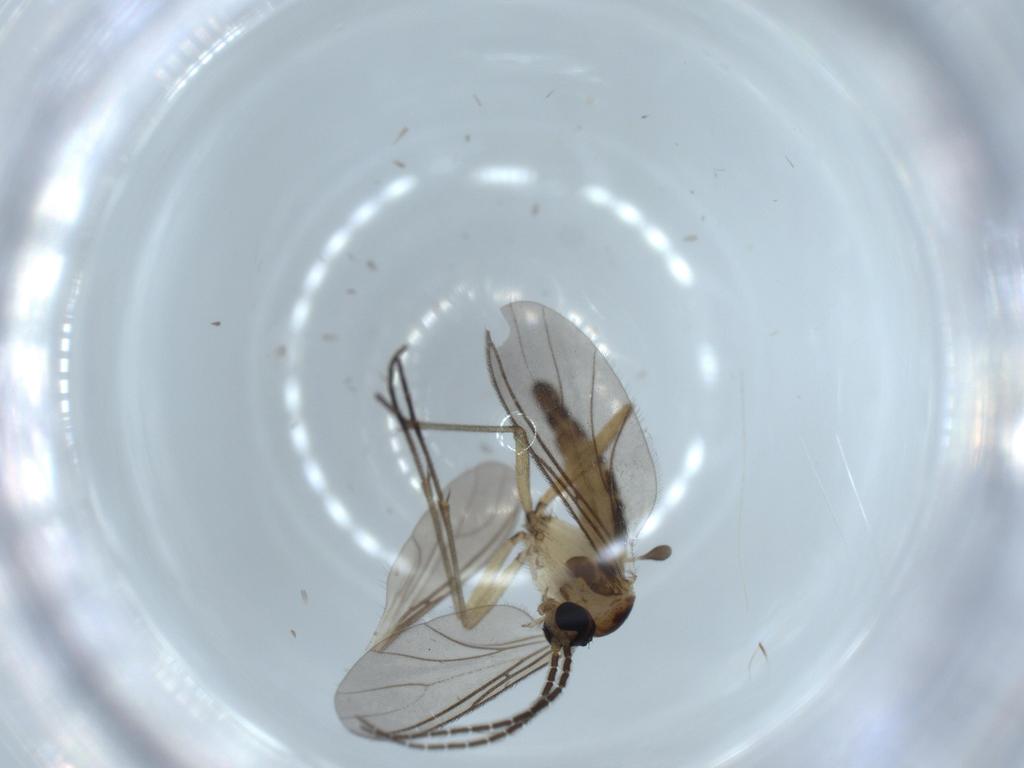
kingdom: Animalia
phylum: Arthropoda
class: Insecta
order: Diptera
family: Sciaridae
